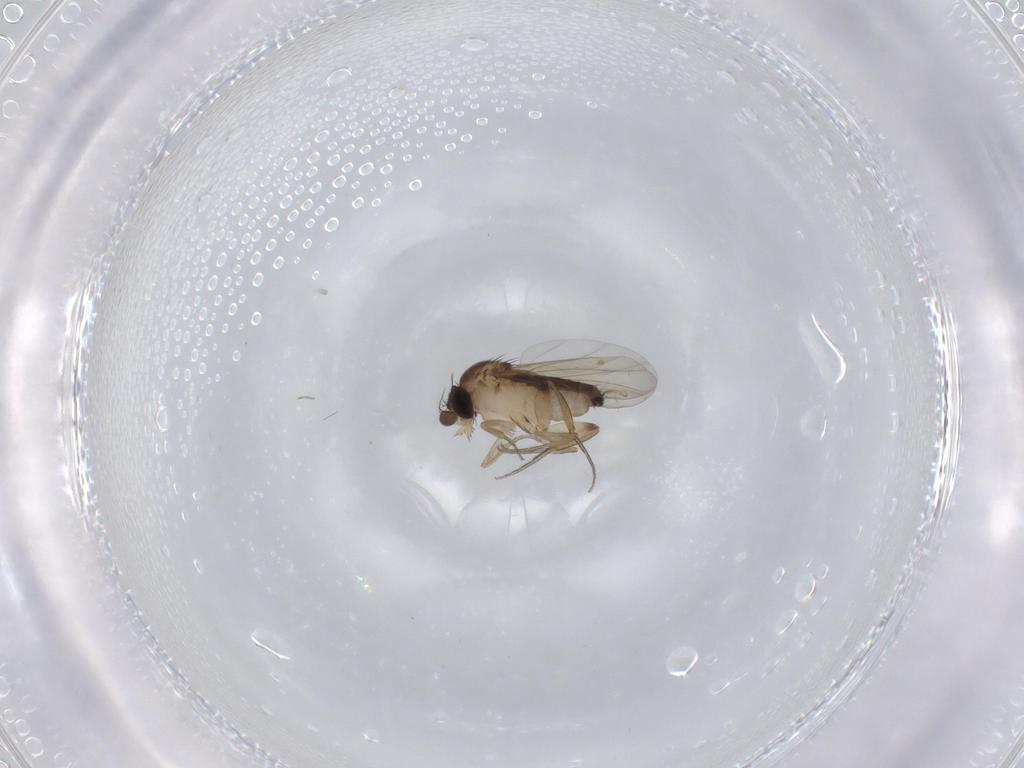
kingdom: Animalia
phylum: Arthropoda
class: Insecta
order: Diptera
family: Phoridae
